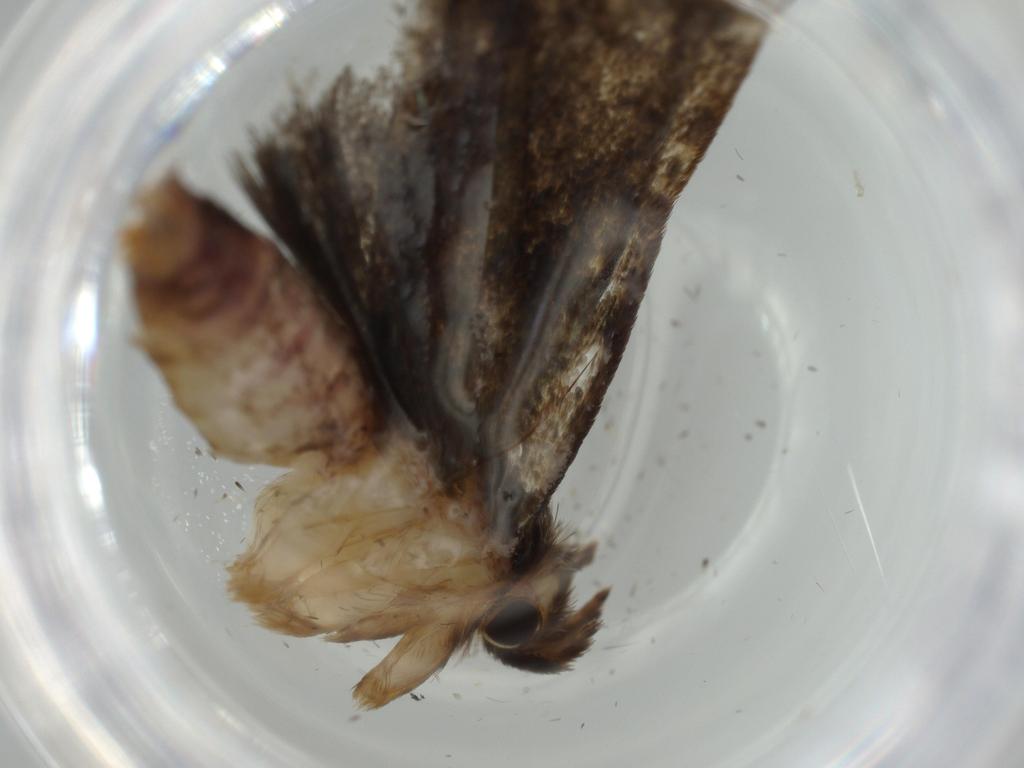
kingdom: Animalia
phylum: Arthropoda
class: Insecta
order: Lepidoptera
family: Tineidae
